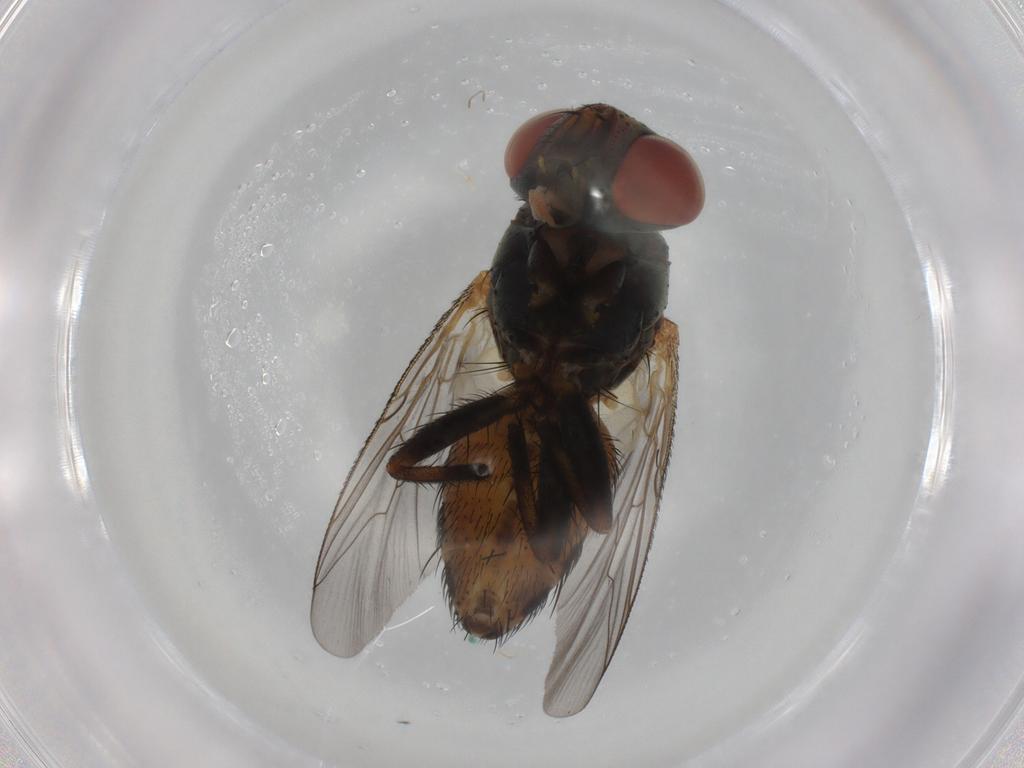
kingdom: Animalia
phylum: Arthropoda
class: Insecta
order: Diptera
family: Sarcophagidae
